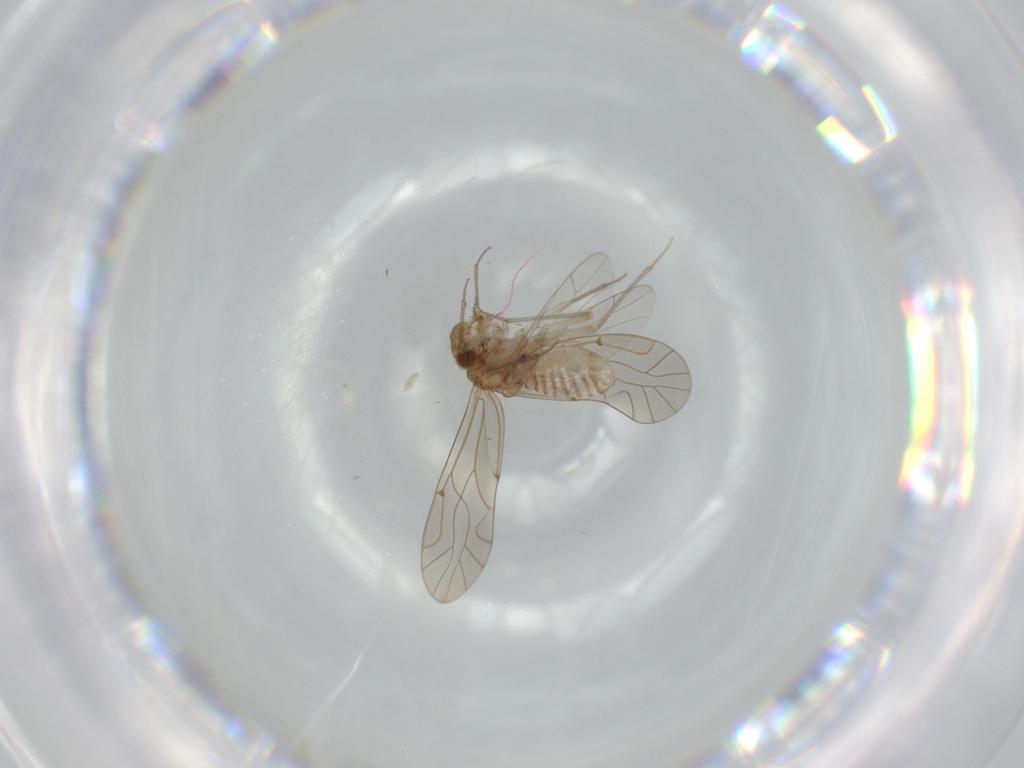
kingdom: Animalia
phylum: Arthropoda
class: Insecta
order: Psocodea
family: Lachesillidae
